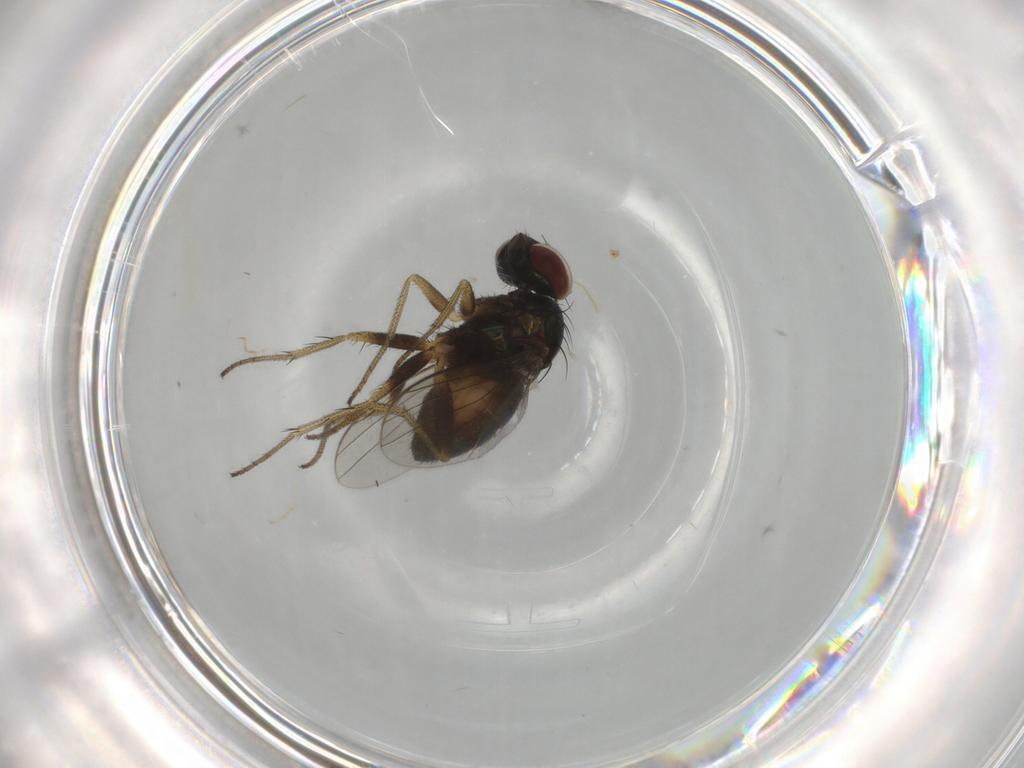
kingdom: Animalia
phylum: Arthropoda
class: Insecta
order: Diptera
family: Dolichopodidae
